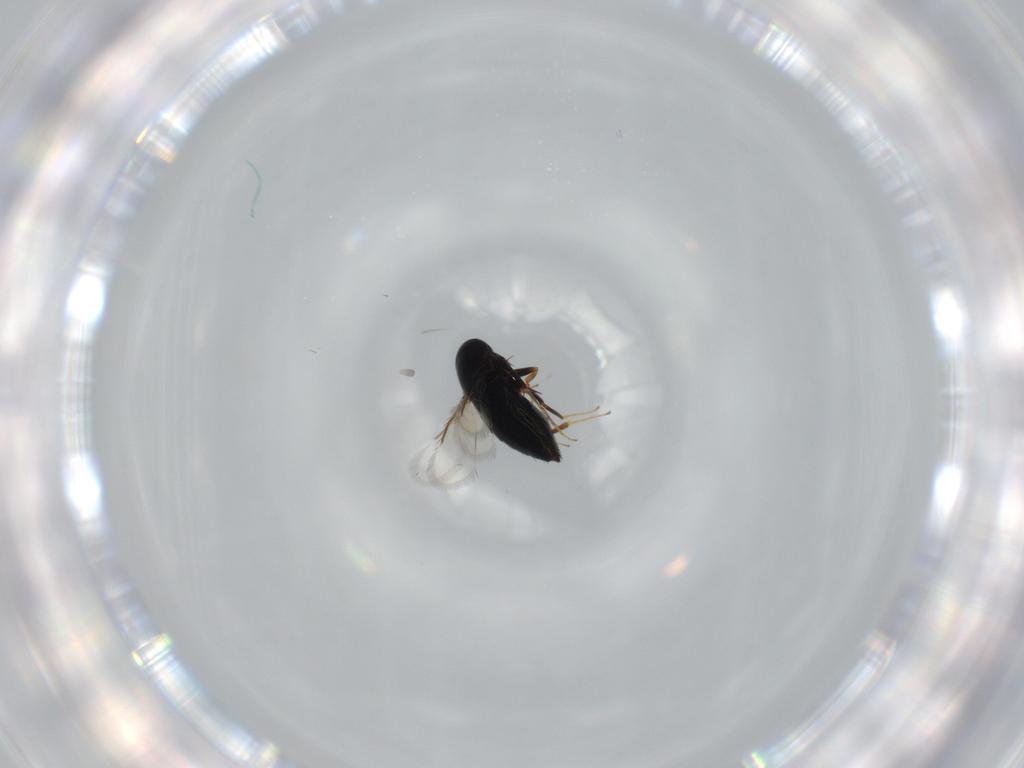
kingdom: Animalia
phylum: Arthropoda
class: Insecta
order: Hymenoptera
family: Signiphoridae
